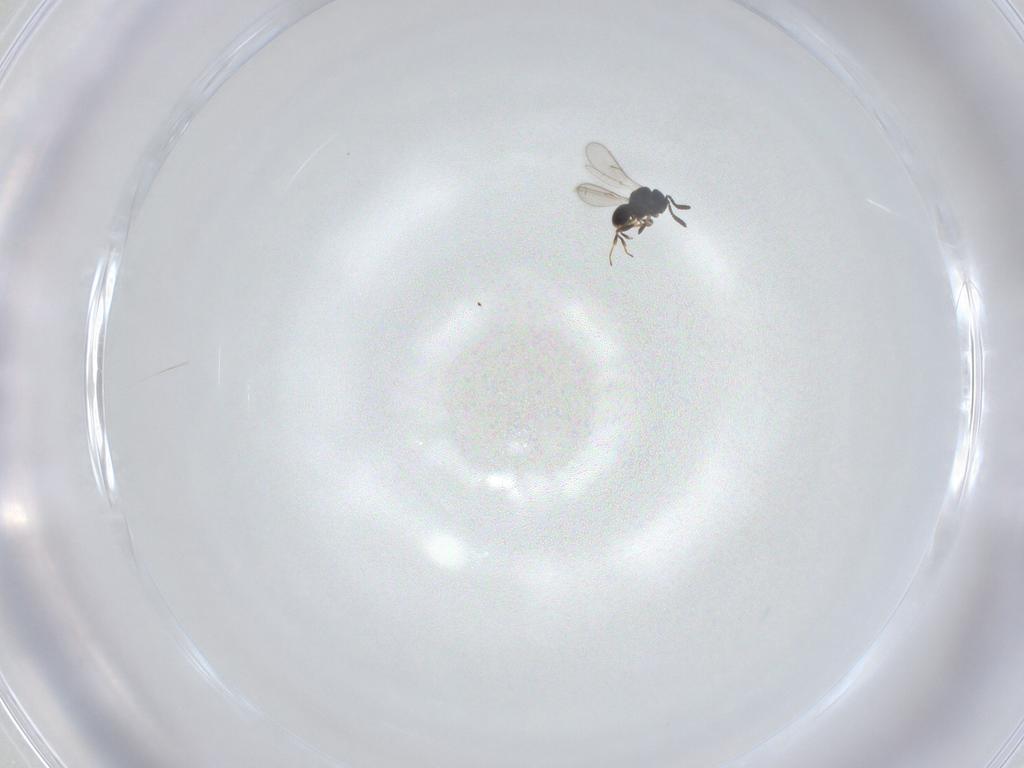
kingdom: Animalia
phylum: Arthropoda
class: Insecta
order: Hymenoptera
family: Scelionidae
